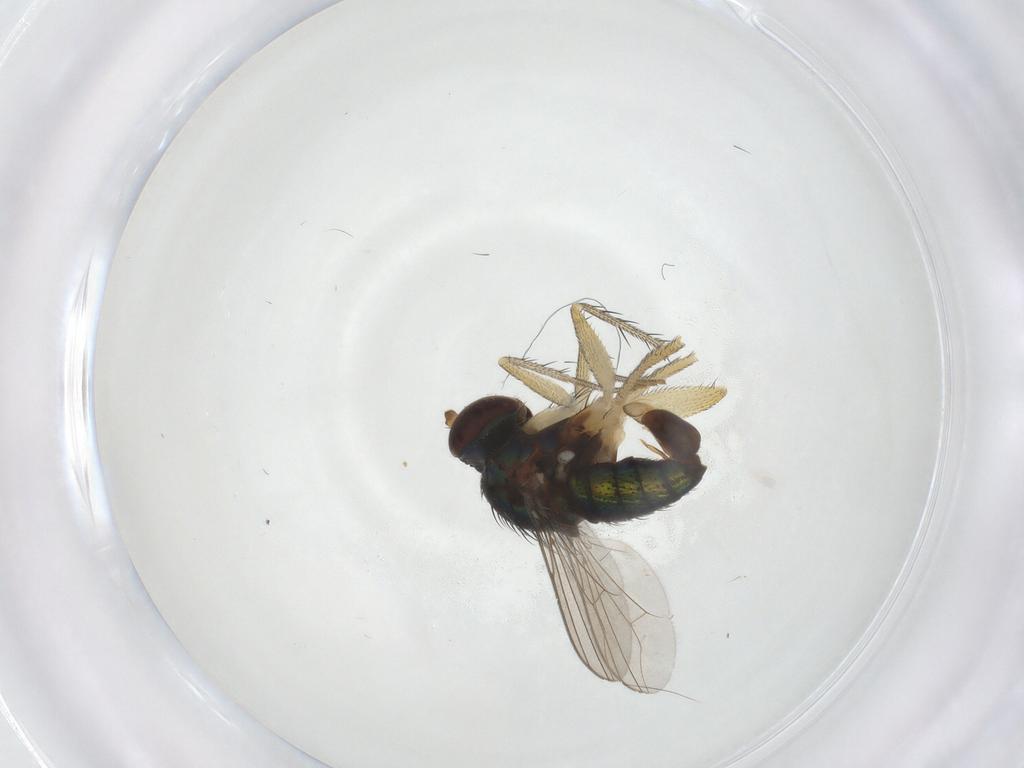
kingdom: Animalia
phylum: Arthropoda
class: Insecta
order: Diptera
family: Dolichopodidae
